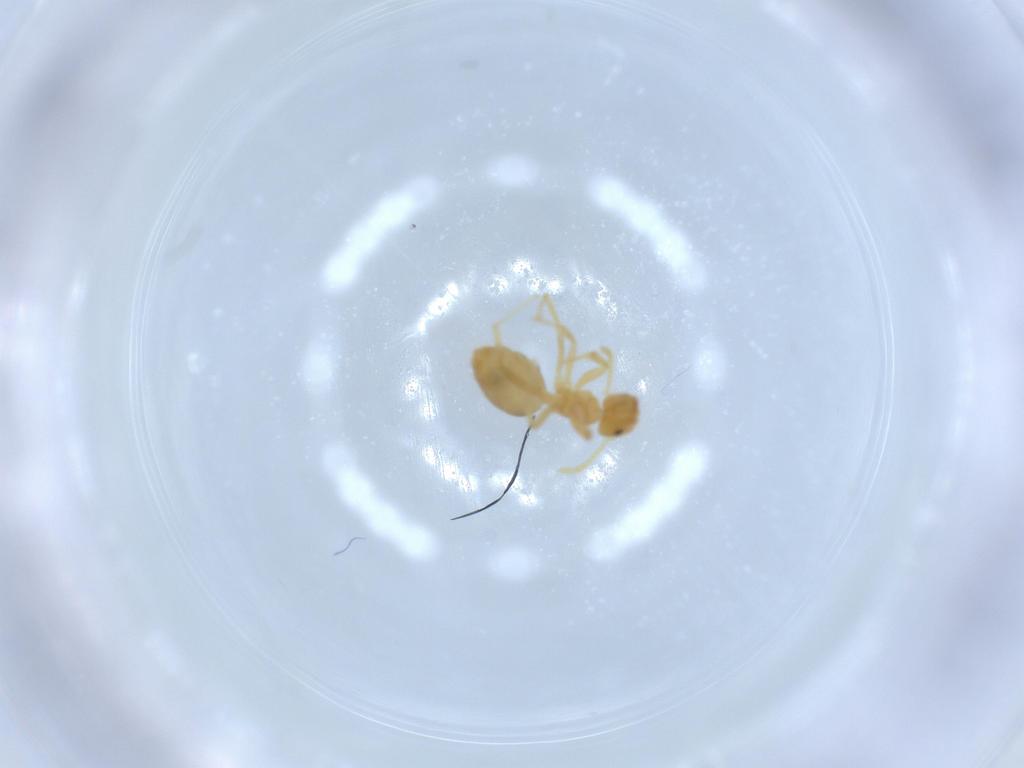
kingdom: Animalia
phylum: Arthropoda
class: Insecta
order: Hymenoptera
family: Formicidae
